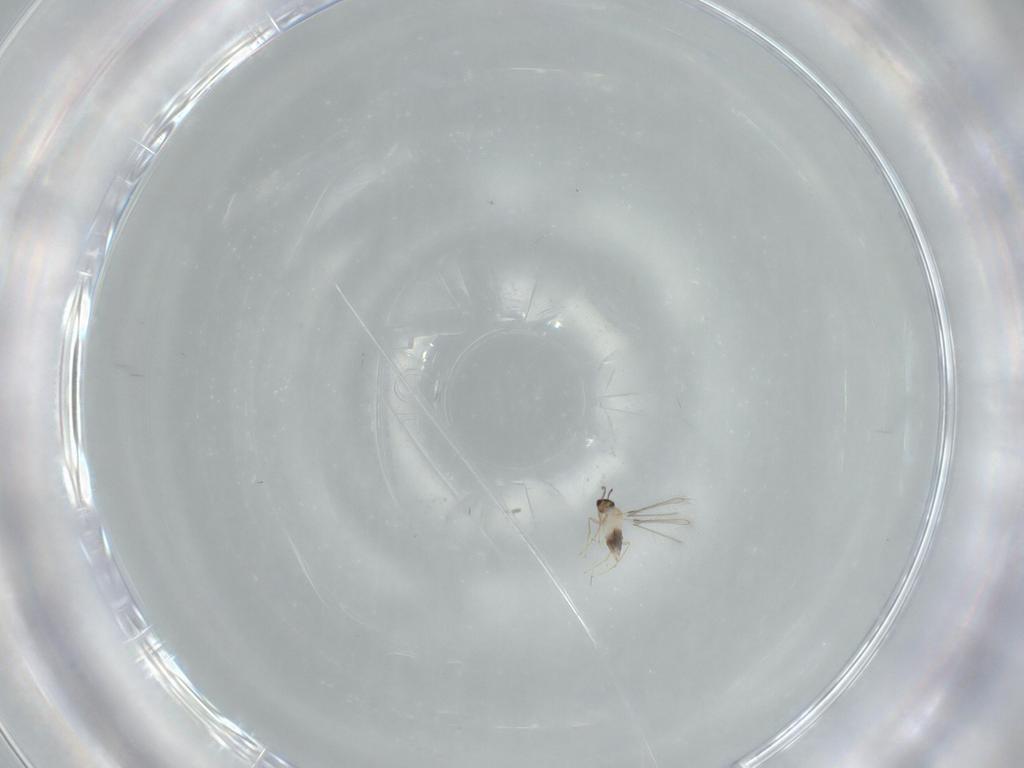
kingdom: Animalia
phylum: Arthropoda
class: Insecta
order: Hymenoptera
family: Mymaridae
